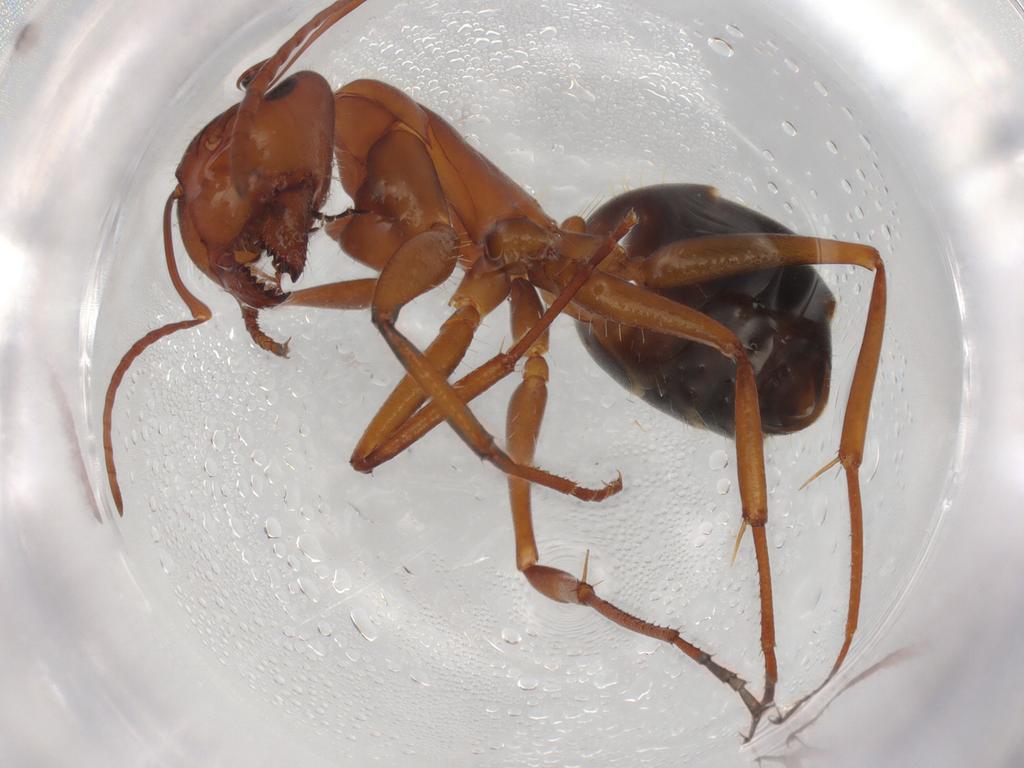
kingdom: Animalia
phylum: Arthropoda
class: Insecta
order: Hymenoptera
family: Formicidae
